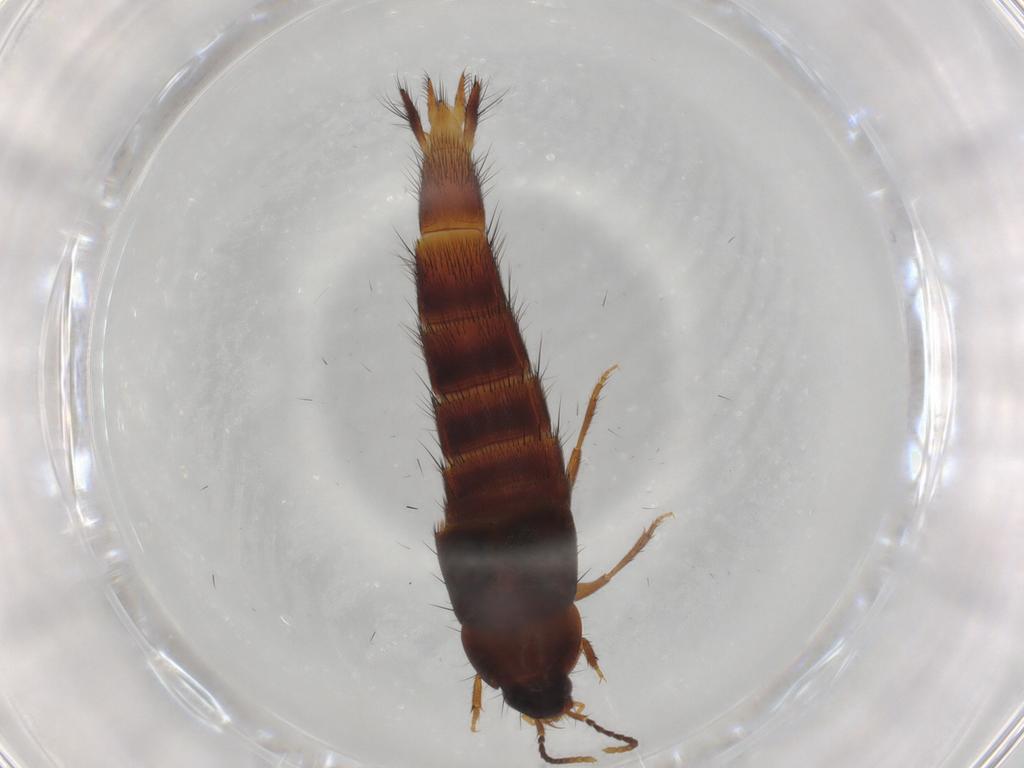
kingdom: Animalia
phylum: Arthropoda
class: Insecta
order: Coleoptera
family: Staphylinidae
